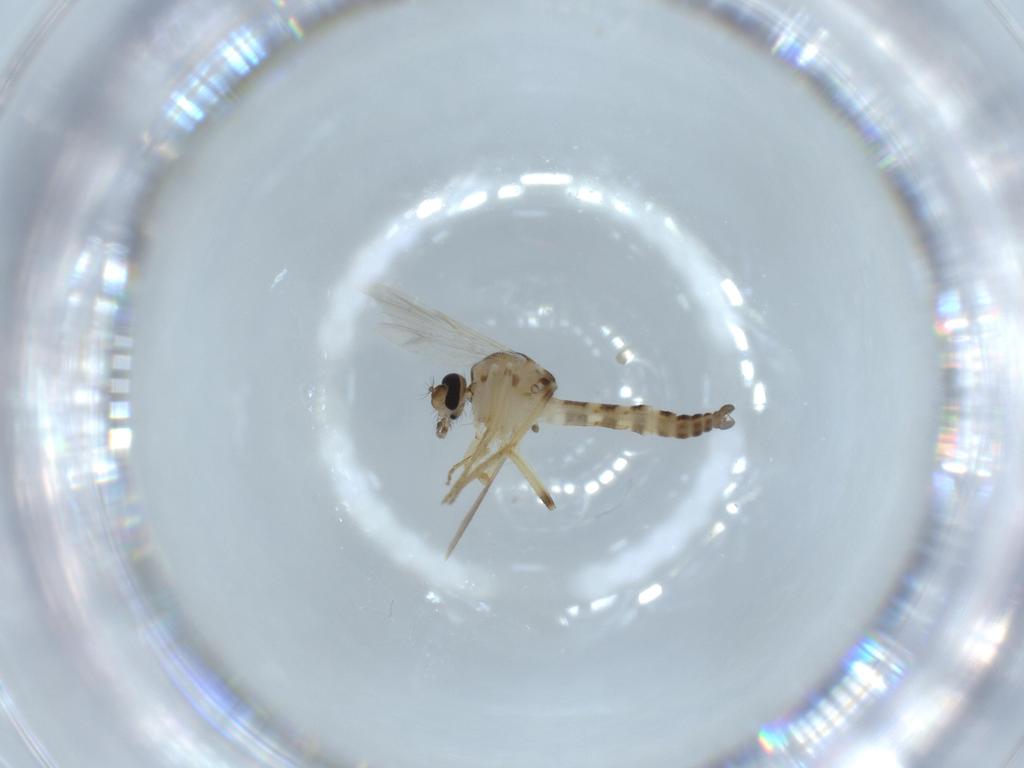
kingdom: Animalia
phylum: Arthropoda
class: Insecta
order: Diptera
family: Ceratopogonidae
